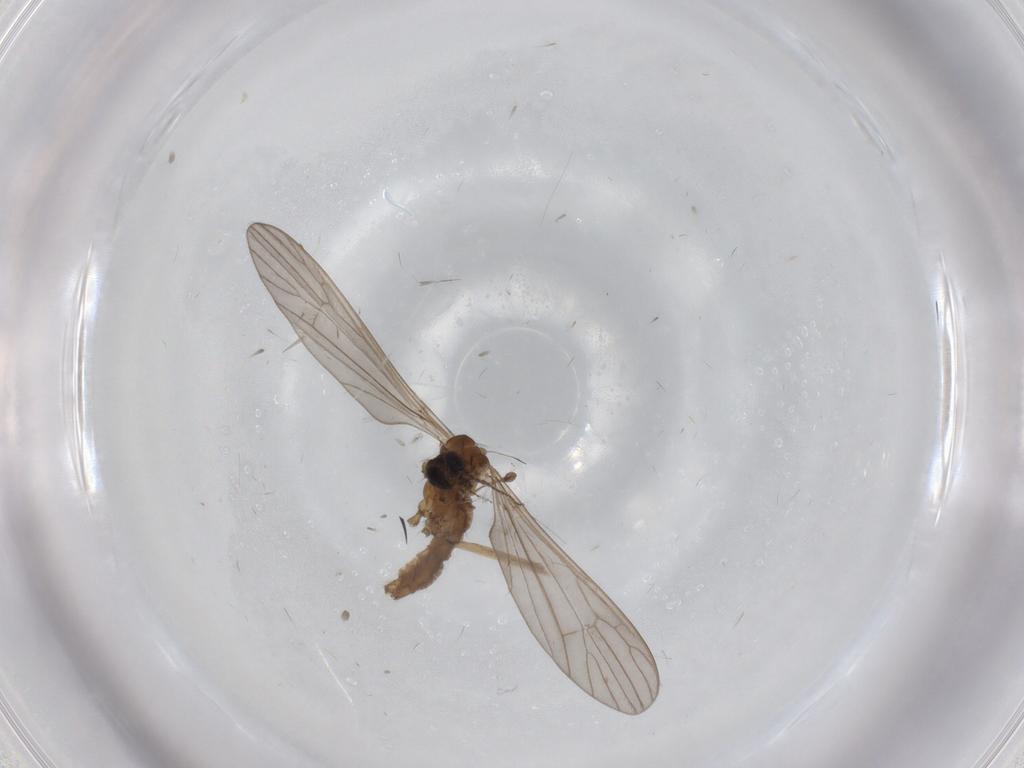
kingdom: Animalia
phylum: Arthropoda
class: Insecta
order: Diptera
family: Limoniidae
